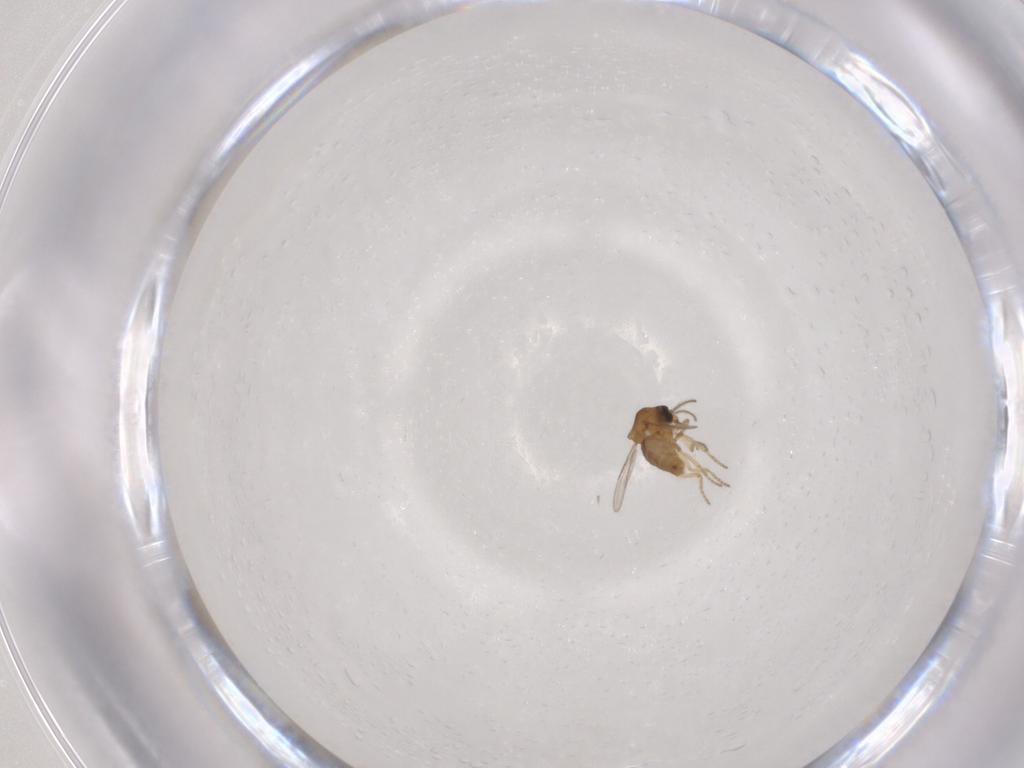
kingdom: Animalia
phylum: Arthropoda
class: Insecta
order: Diptera
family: Ceratopogonidae
